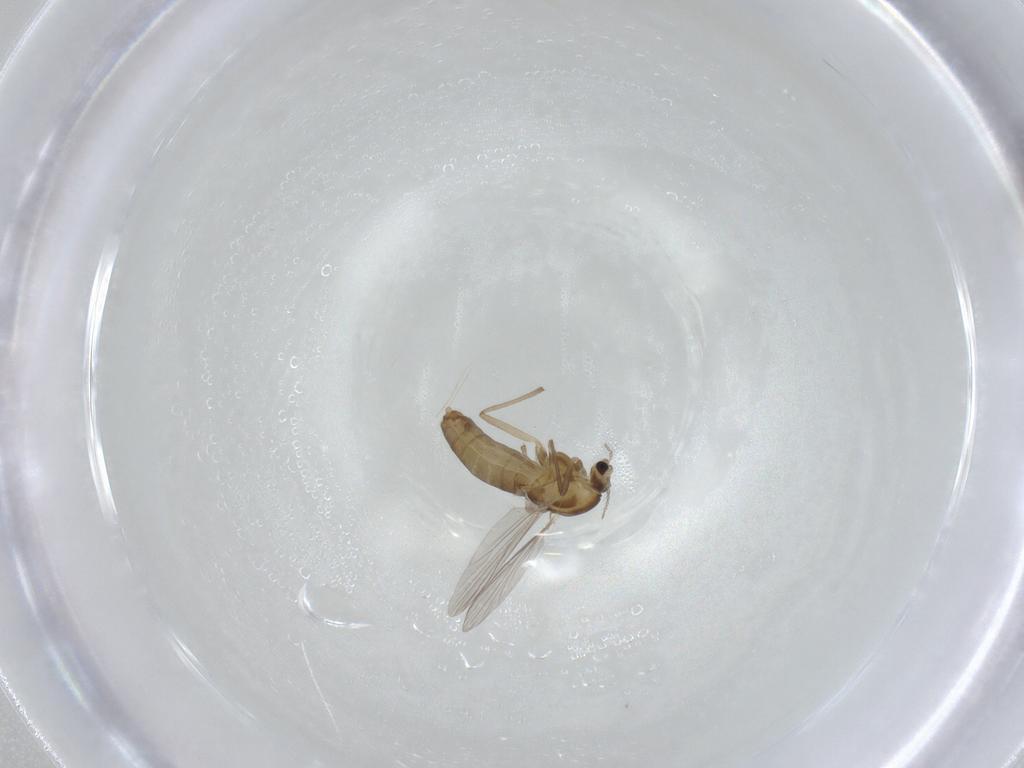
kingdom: Animalia
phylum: Arthropoda
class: Insecta
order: Diptera
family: Chironomidae
